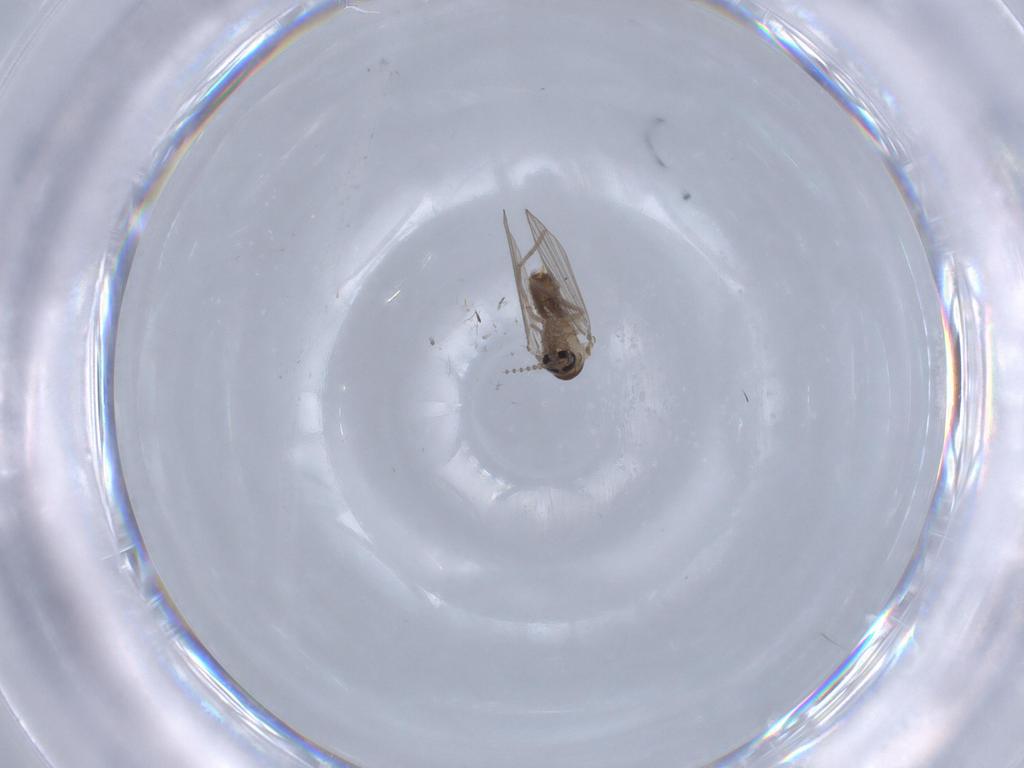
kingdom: Animalia
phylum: Arthropoda
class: Insecta
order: Diptera
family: Psychodidae
